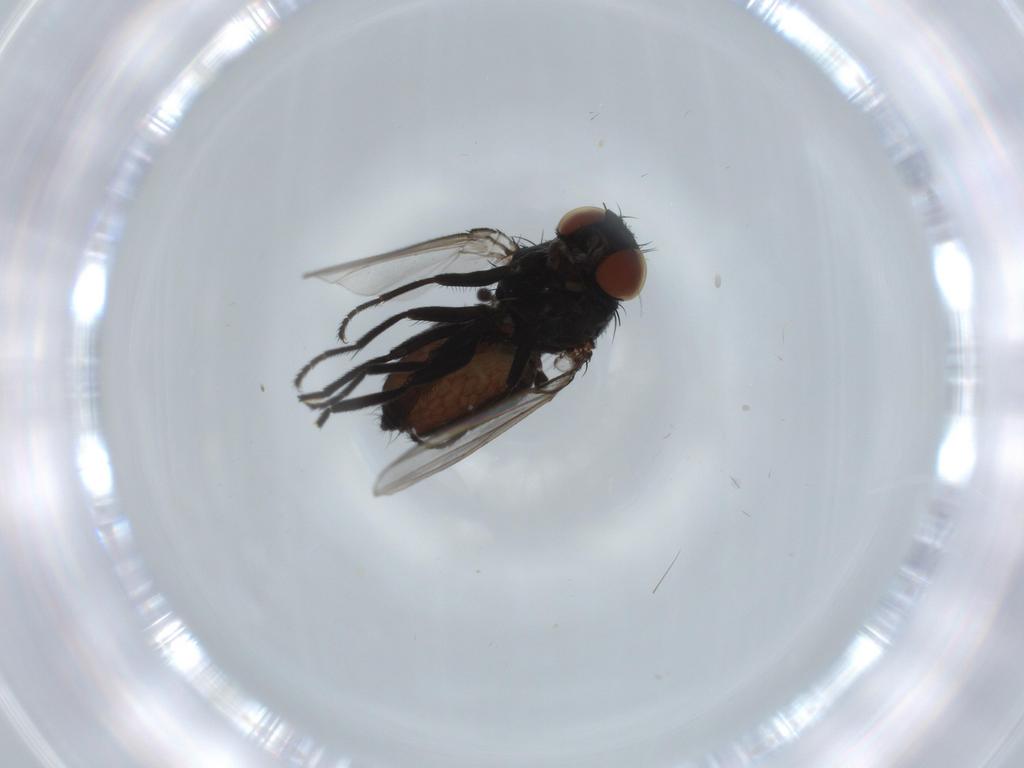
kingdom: Animalia
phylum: Arthropoda
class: Insecta
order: Diptera
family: Milichiidae
